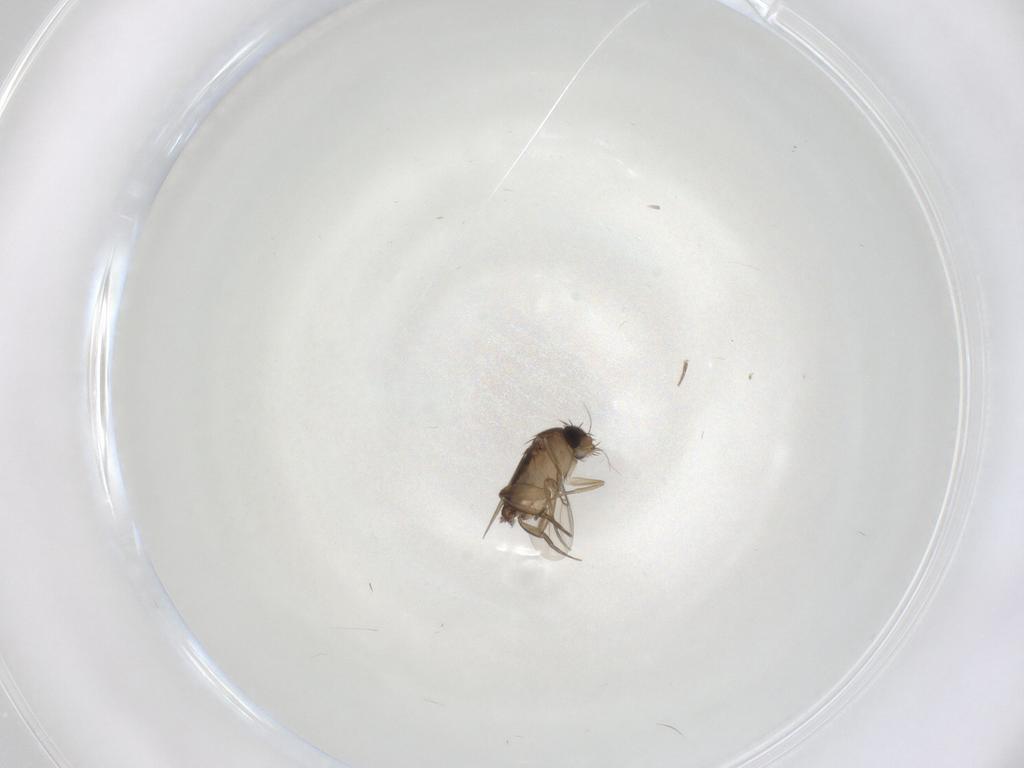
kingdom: Animalia
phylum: Arthropoda
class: Insecta
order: Diptera
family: Phoridae
